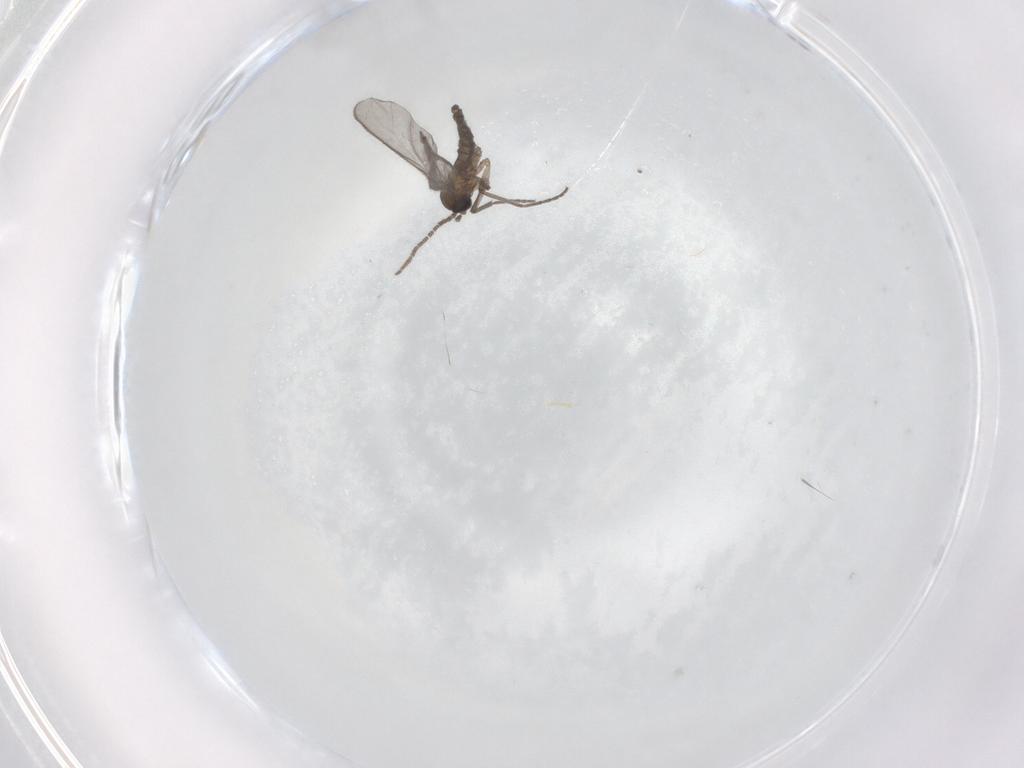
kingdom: Animalia
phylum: Arthropoda
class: Insecta
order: Diptera
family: Sciaridae
